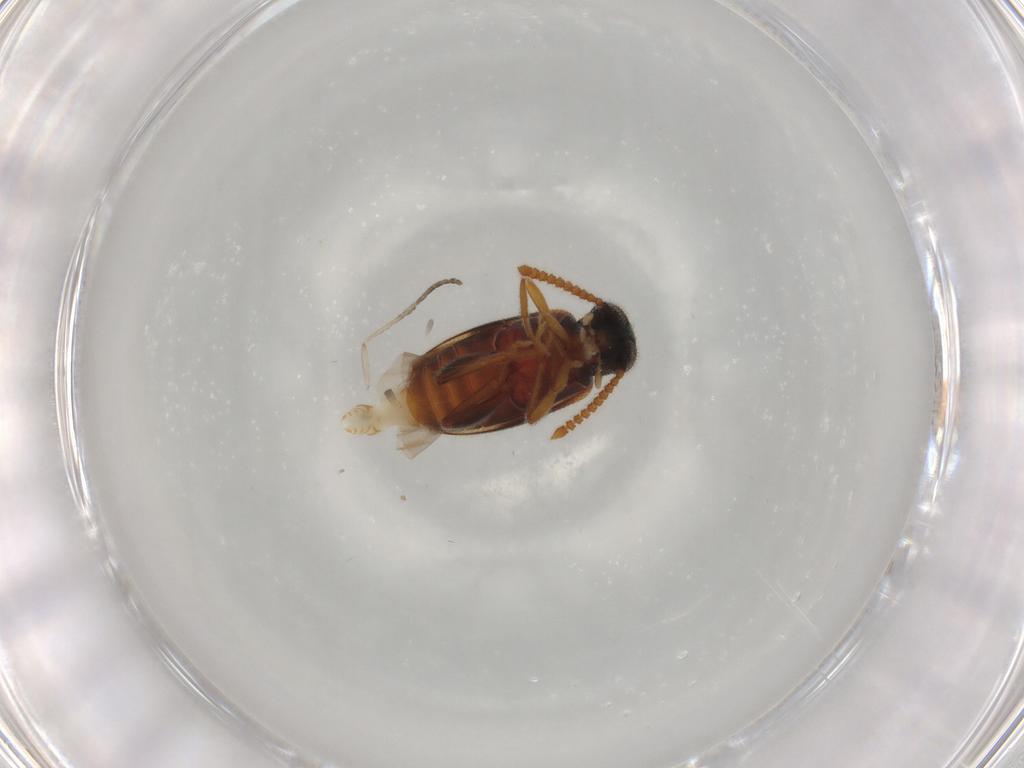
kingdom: Animalia
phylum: Arthropoda
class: Insecta
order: Coleoptera
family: Aderidae
